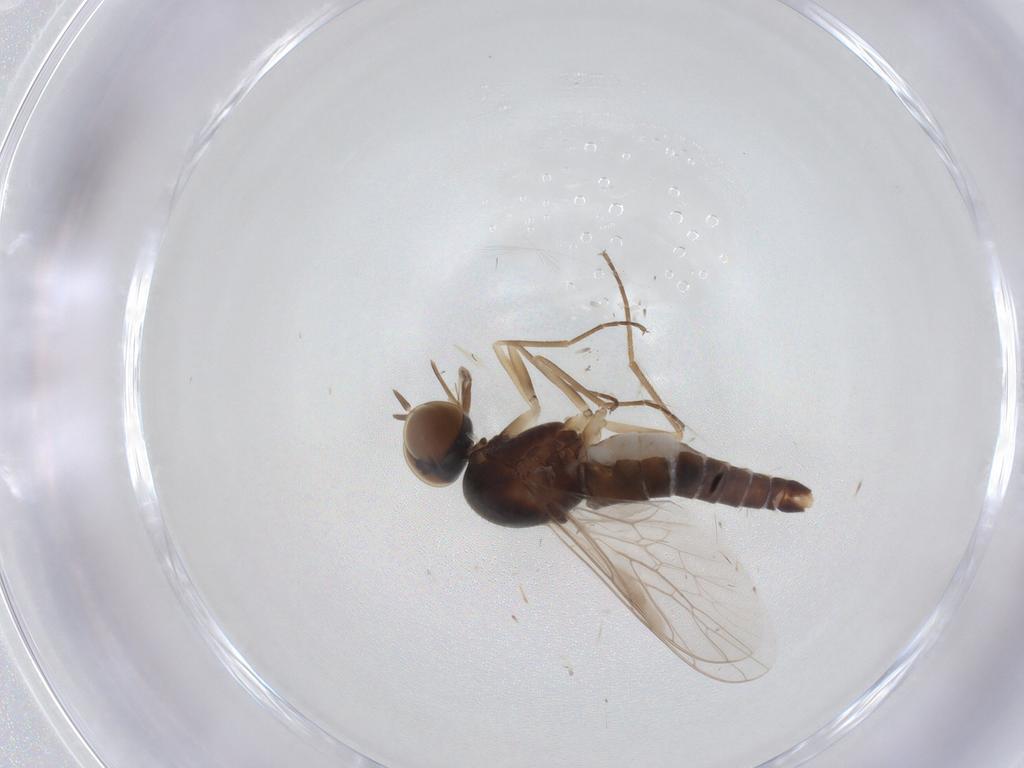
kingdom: Animalia
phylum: Arthropoda
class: Insecta
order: Diptera
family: Scenopinidae
